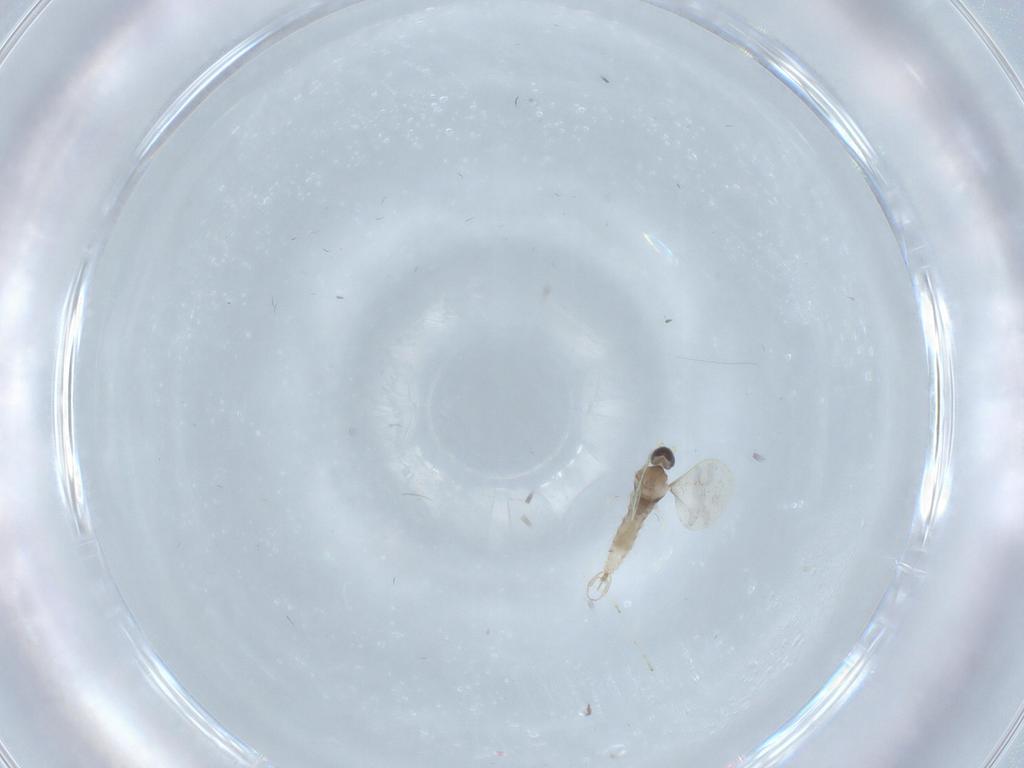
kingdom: Animalia
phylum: Arthropoda
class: Insecta
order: Diptera
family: Cecidomyiidae
